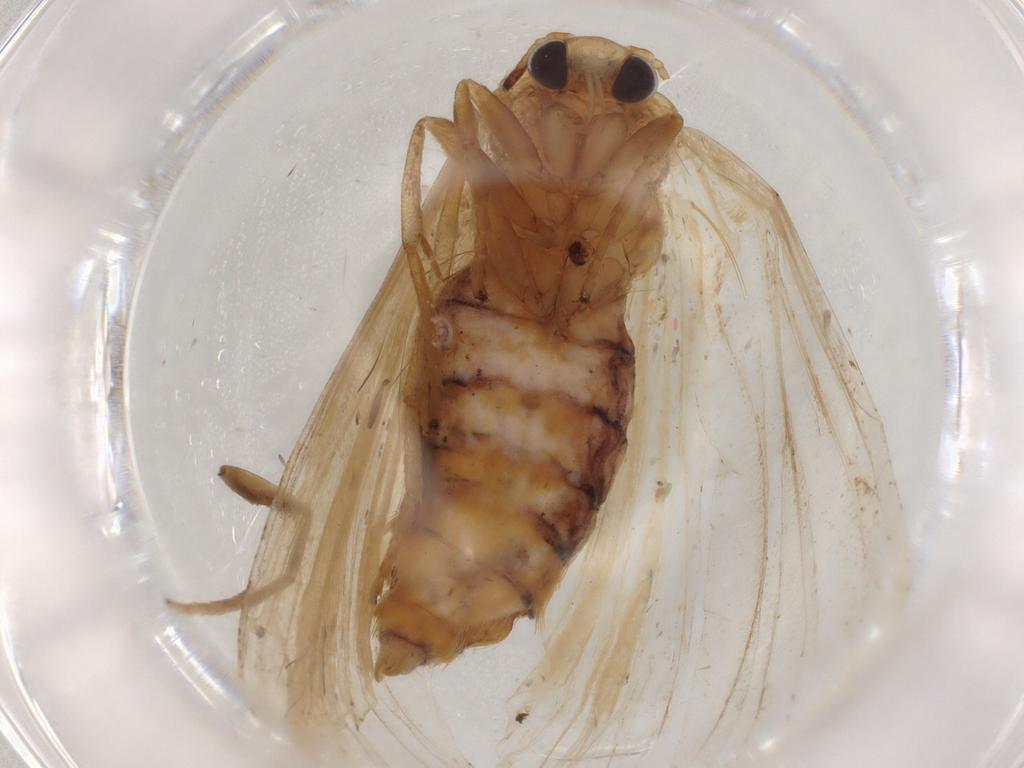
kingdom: Animalia
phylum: Arthropoda
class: Insecta
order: Lepidoptera
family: Erebidae
